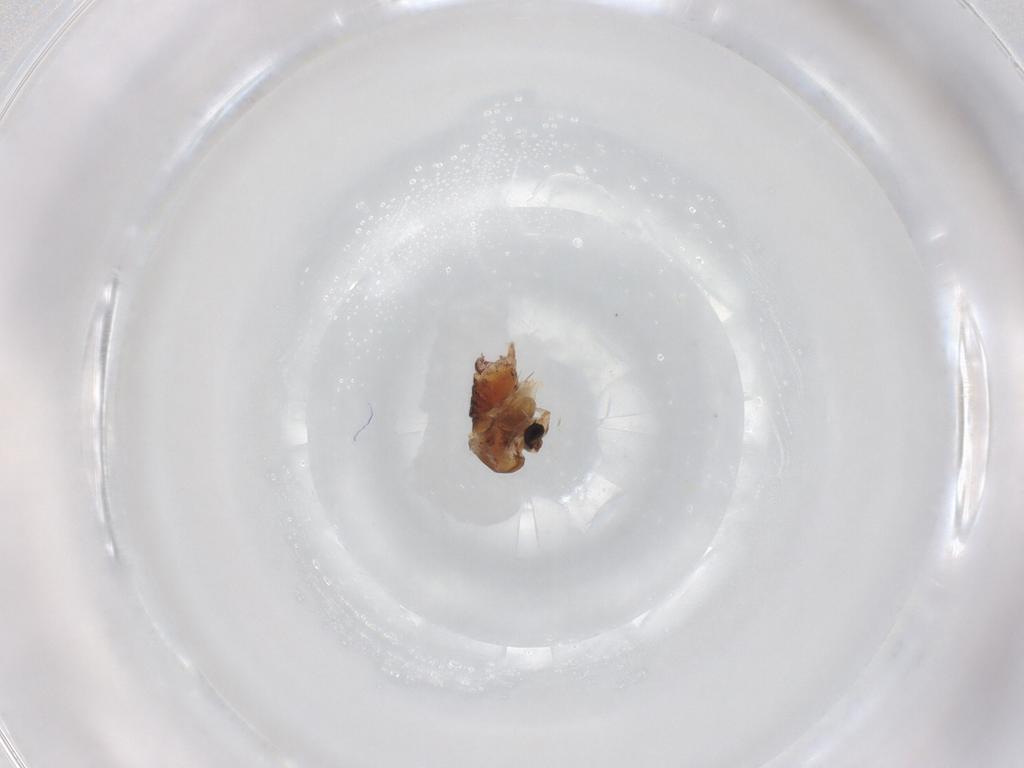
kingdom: Animalia
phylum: Arthropoda
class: Insecta
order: Diptera
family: Chironomidae
